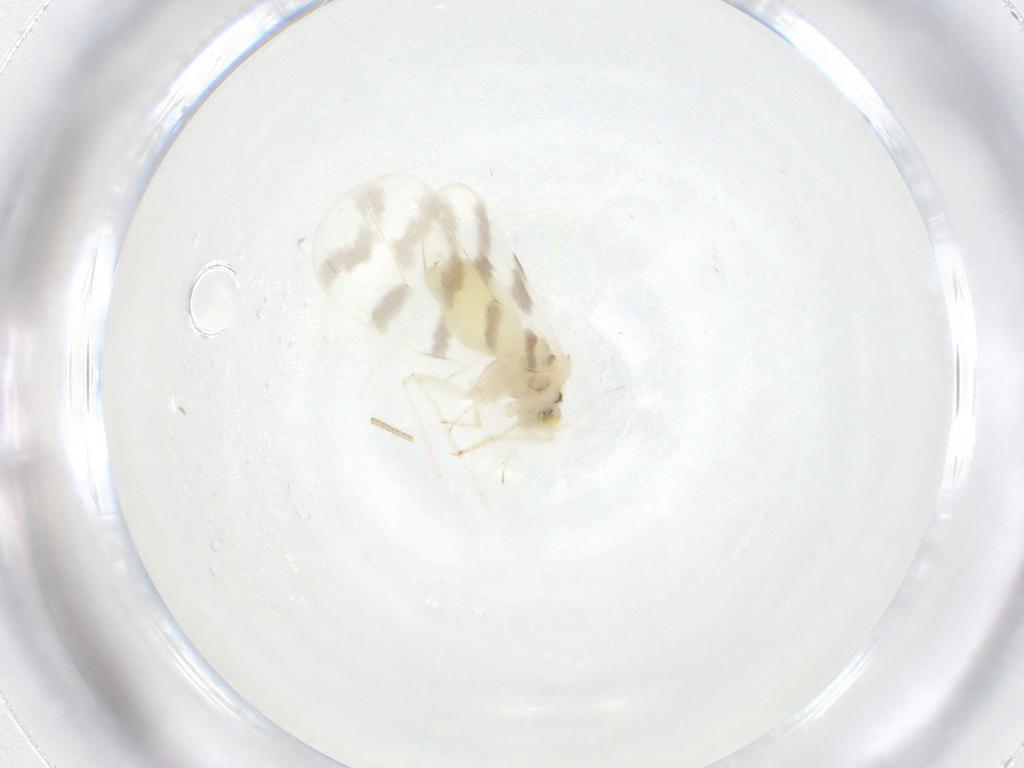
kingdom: Animalia
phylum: Arthropoda
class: Insecta
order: Hemiptera
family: Aleyrodidae
